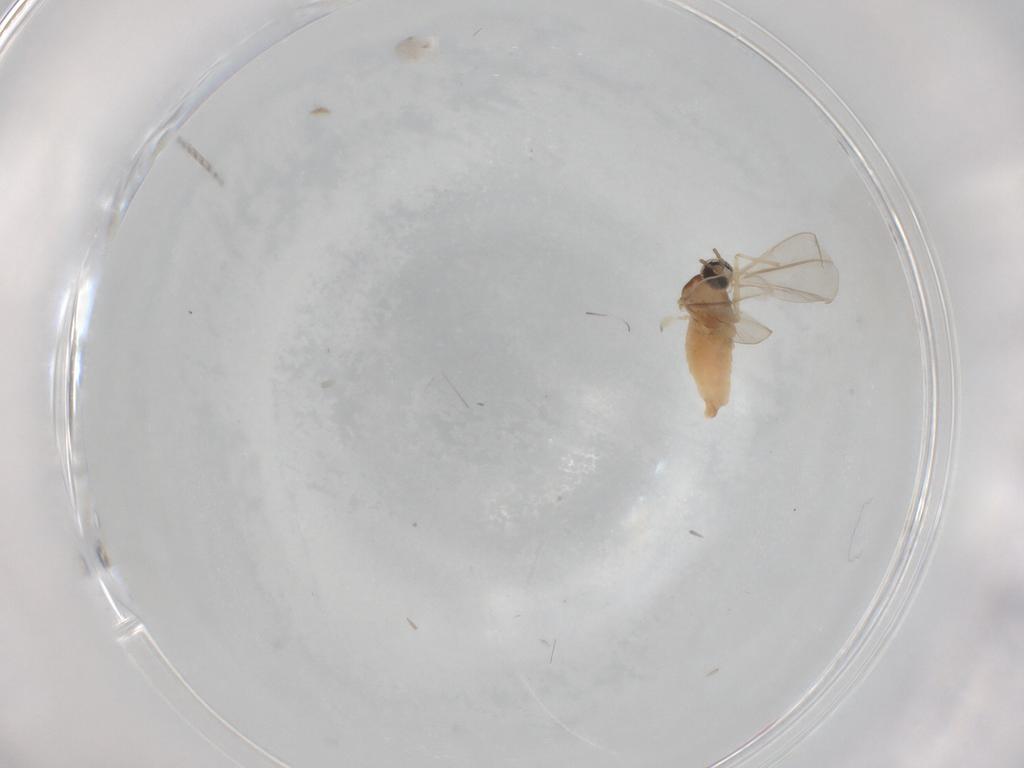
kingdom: Animalia
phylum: Arthropoda
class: Insecta
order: Diptera
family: Cecidomyiidae
